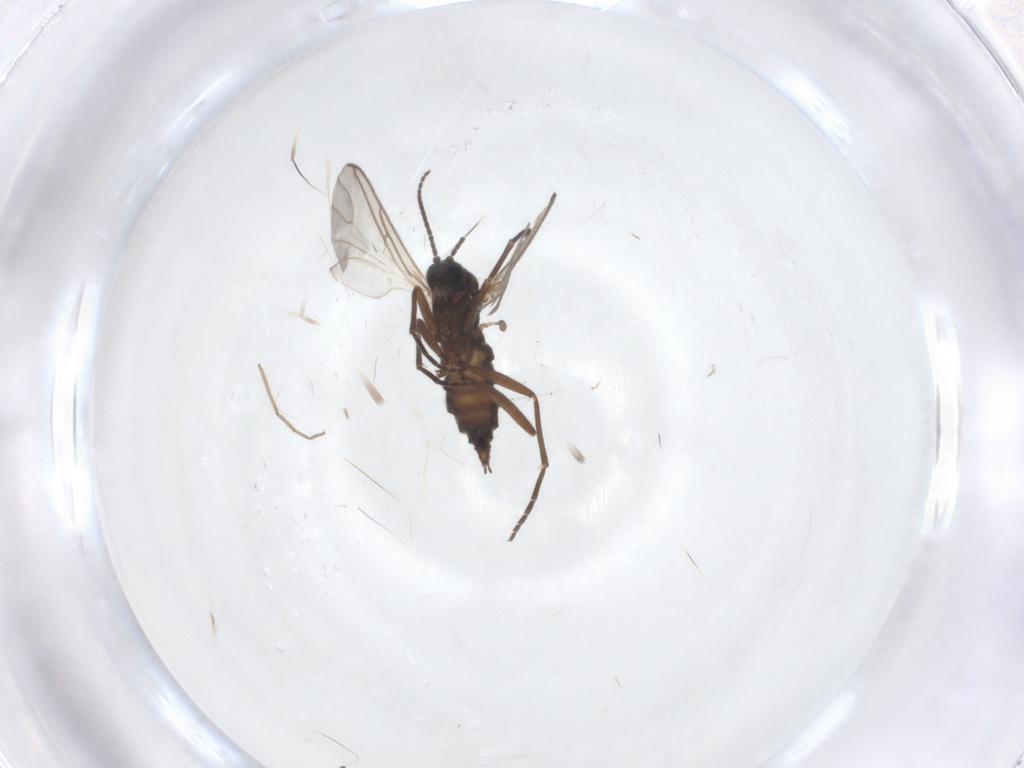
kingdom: Animalia
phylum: Arthropoda
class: Insecta
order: Diptera
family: Sciaridae
